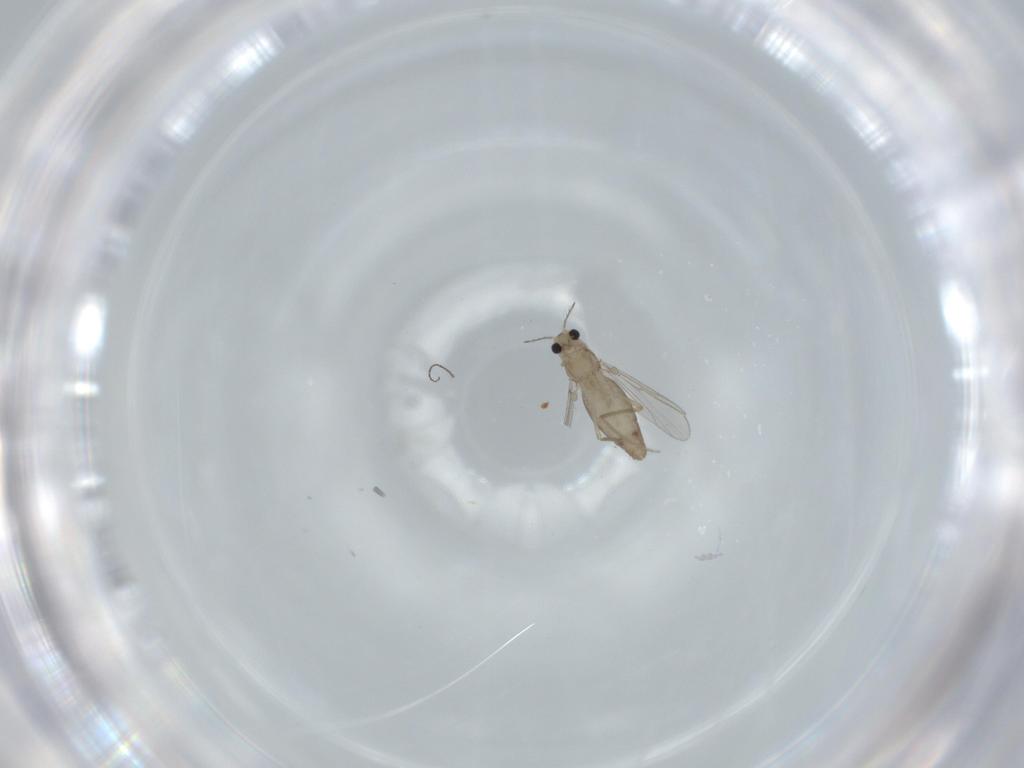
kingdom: Animalia
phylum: Arthropoda
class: Insecta
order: Diptera
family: Chironomidae
